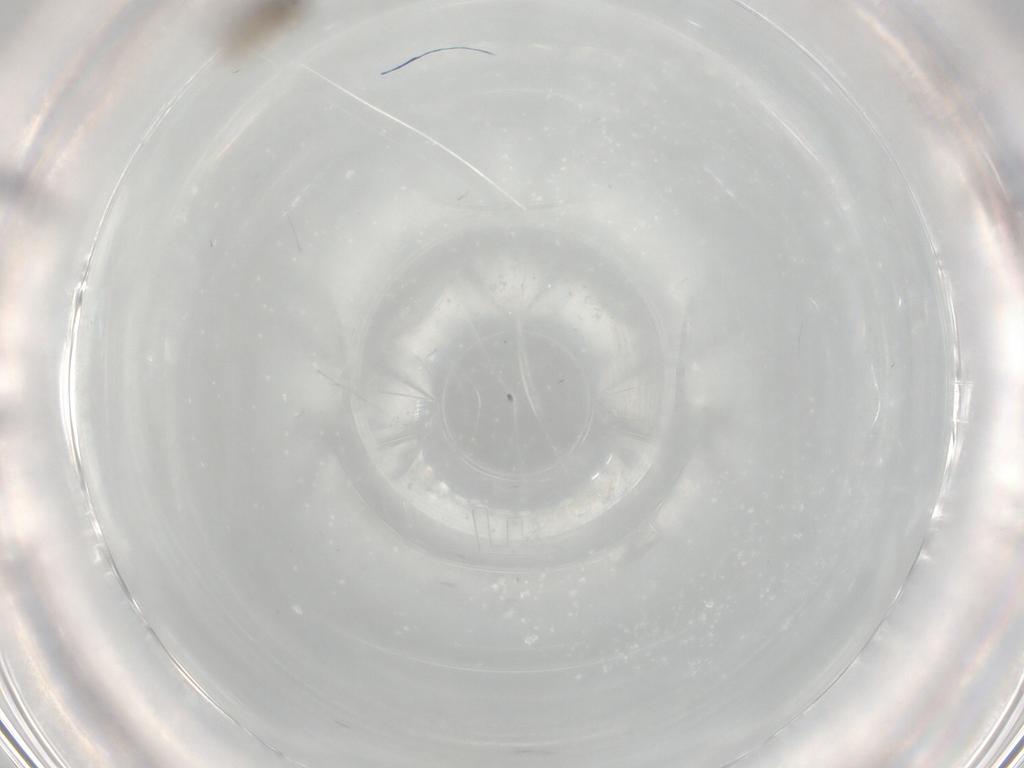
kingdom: Animalia
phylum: Arthropoda
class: Insecta
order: Diptera
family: Cecidomyiidae
